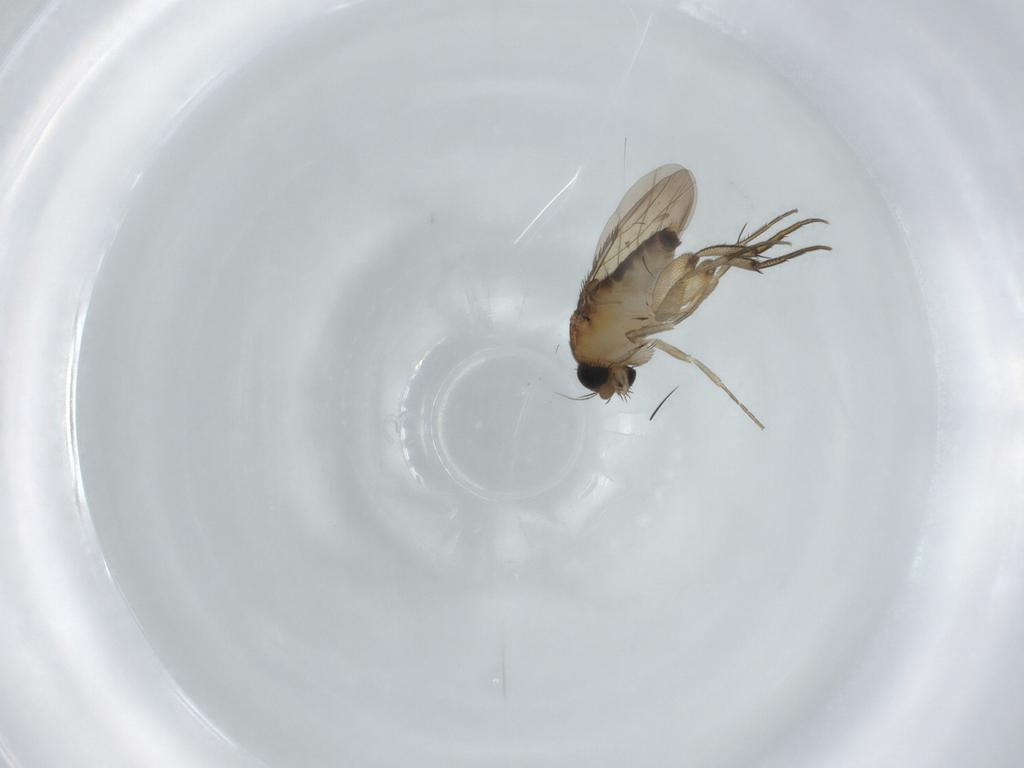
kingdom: Animalia
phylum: Arthropoda
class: Insecta
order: Diptera
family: Phoridae
